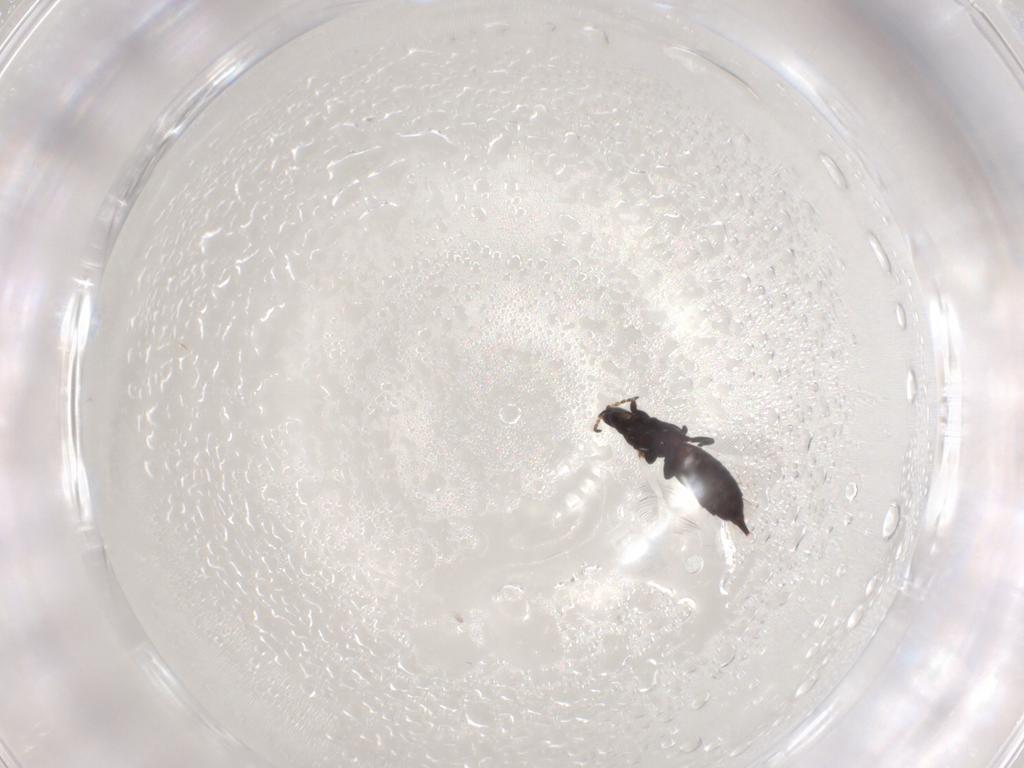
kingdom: Animalia
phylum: Arthropoda
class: Insecta
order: Thysanoptera
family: Phlaeothripidae
